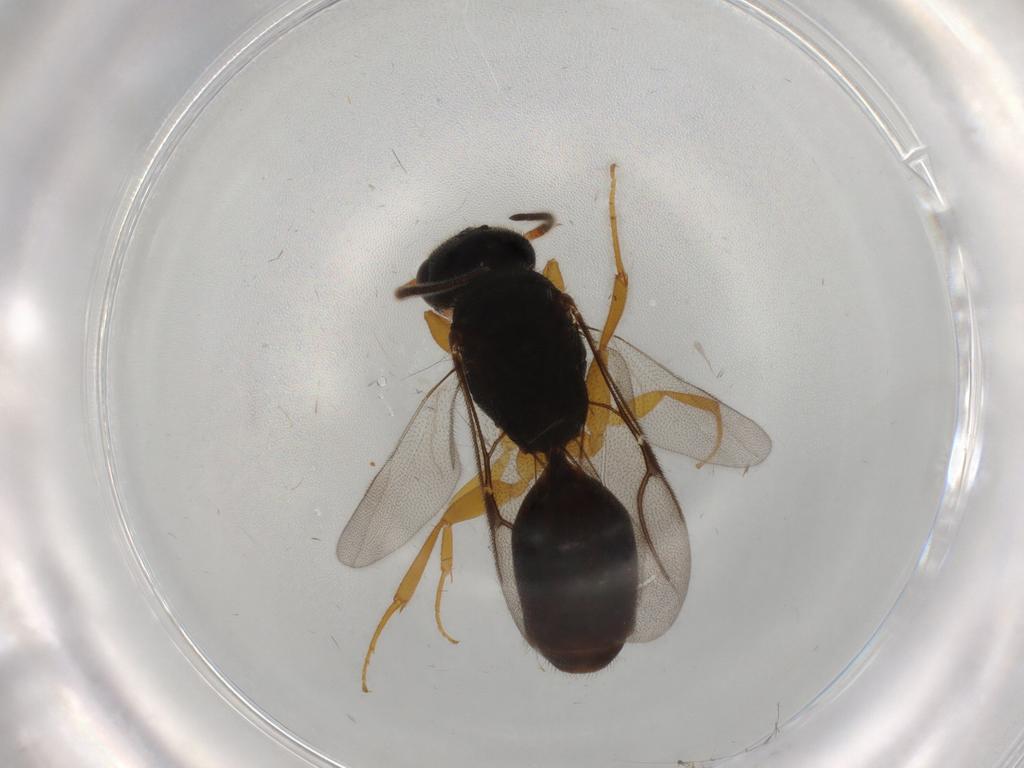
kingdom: Animalia
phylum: Arthropoda
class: Insecta
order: Hymenoptera
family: Bethylidae
